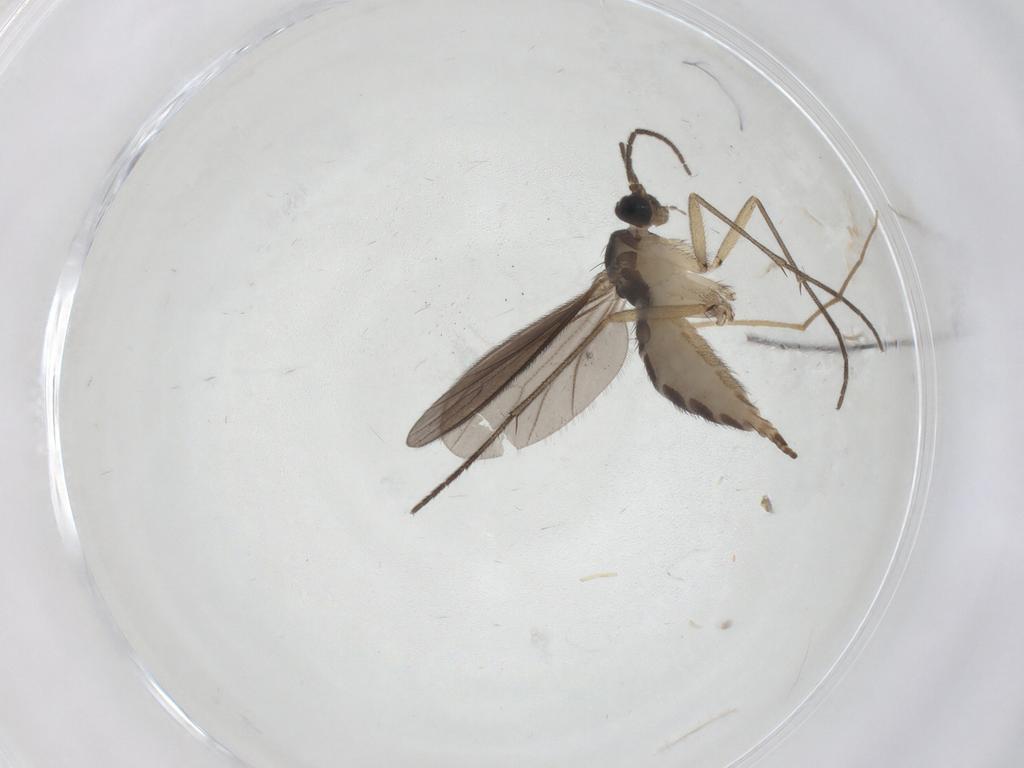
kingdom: Animalia
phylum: Arthropoda
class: Insecta
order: Diptera
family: Sciaridae
